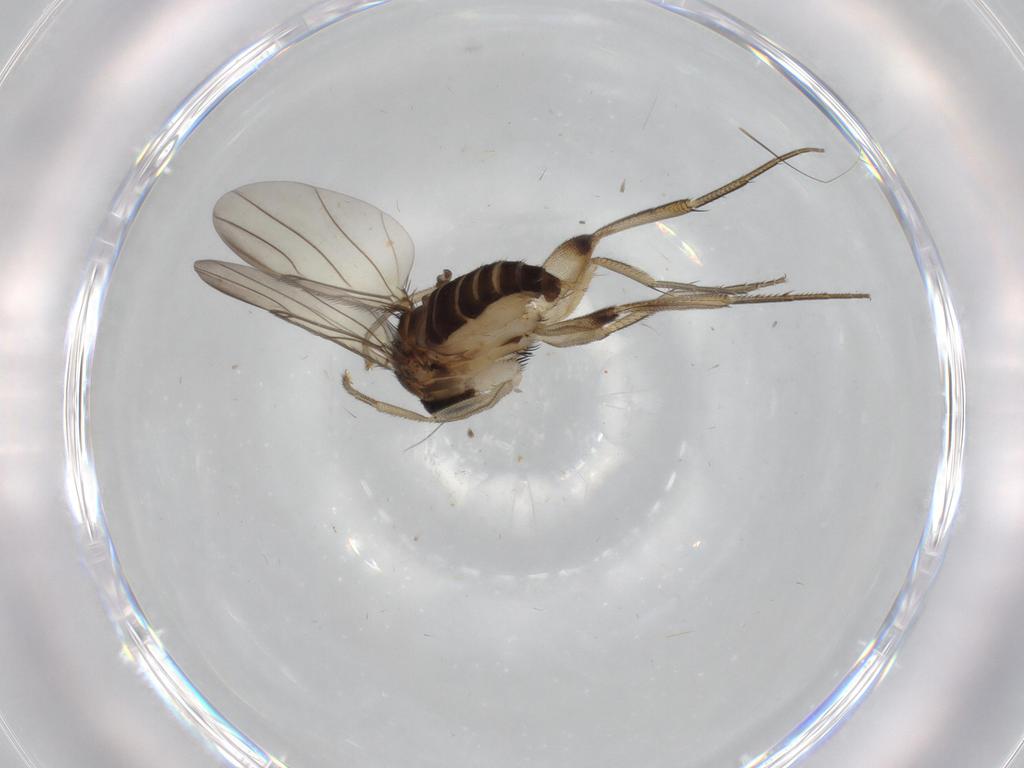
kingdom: Animalia
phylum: Arthropoda
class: Insecta
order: Diptera
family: Phoridae
